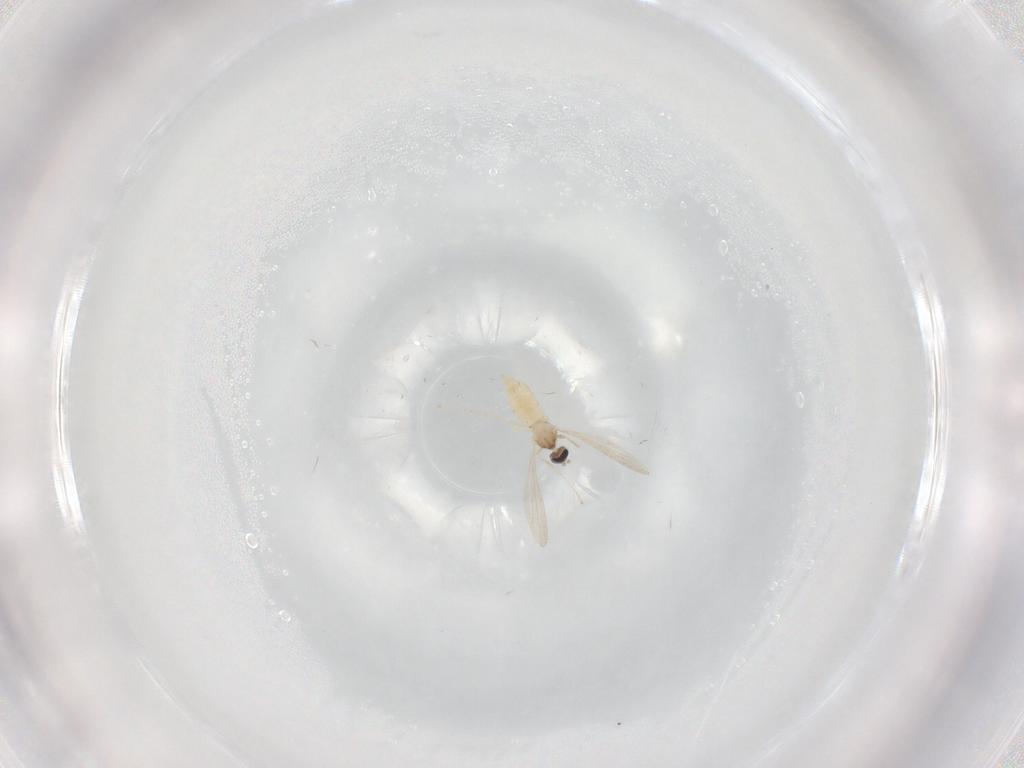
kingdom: Animalia
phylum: Arthropoda
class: Insecta
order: Diptera
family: Cecidomyiidae
